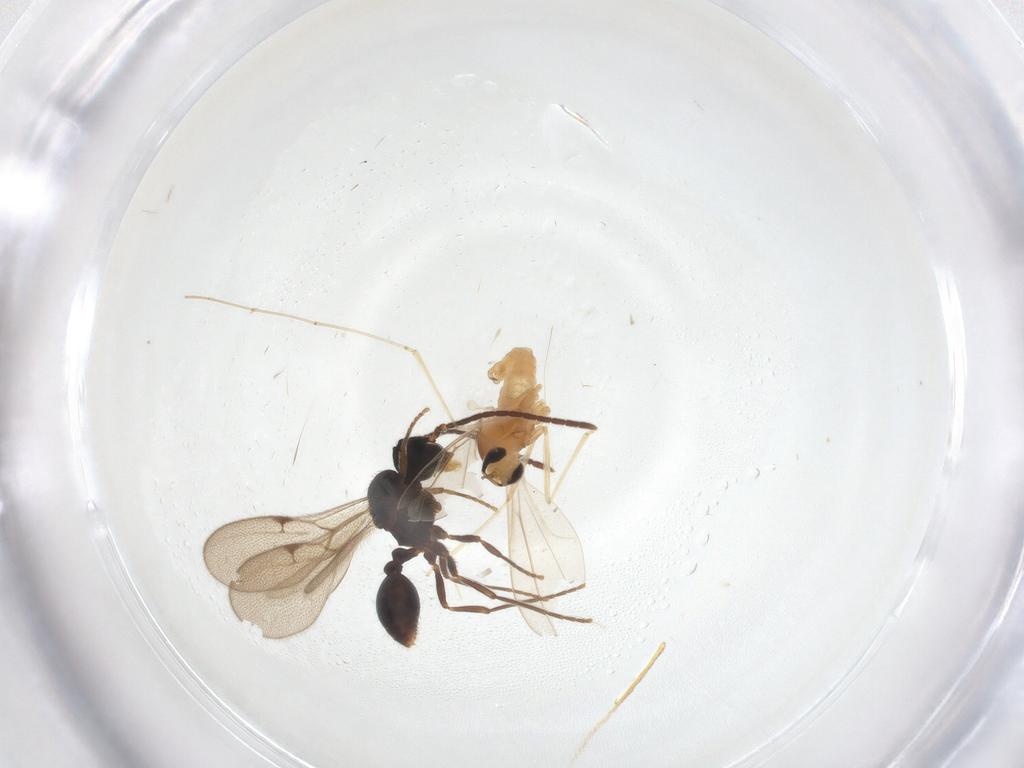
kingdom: Animalia
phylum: Arthropoda
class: Insecta
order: Hymenoptera
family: Formicidae
